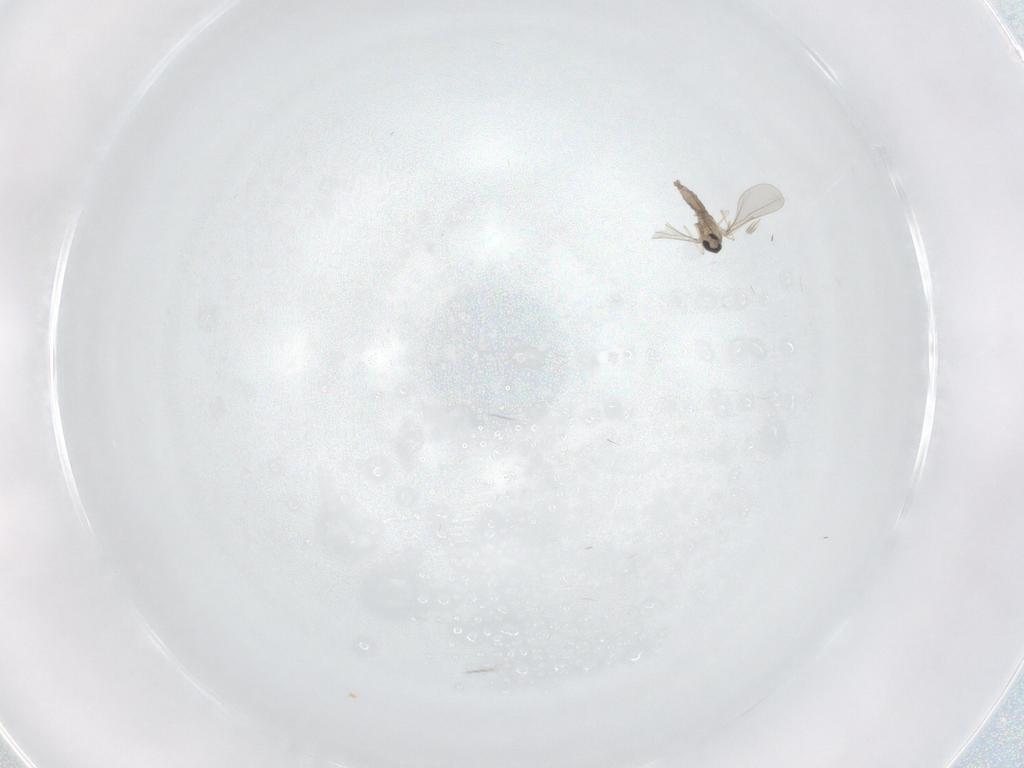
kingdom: Animalia
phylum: Arthropoda
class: Insecta
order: Diptera
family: Cecidomyiidae
